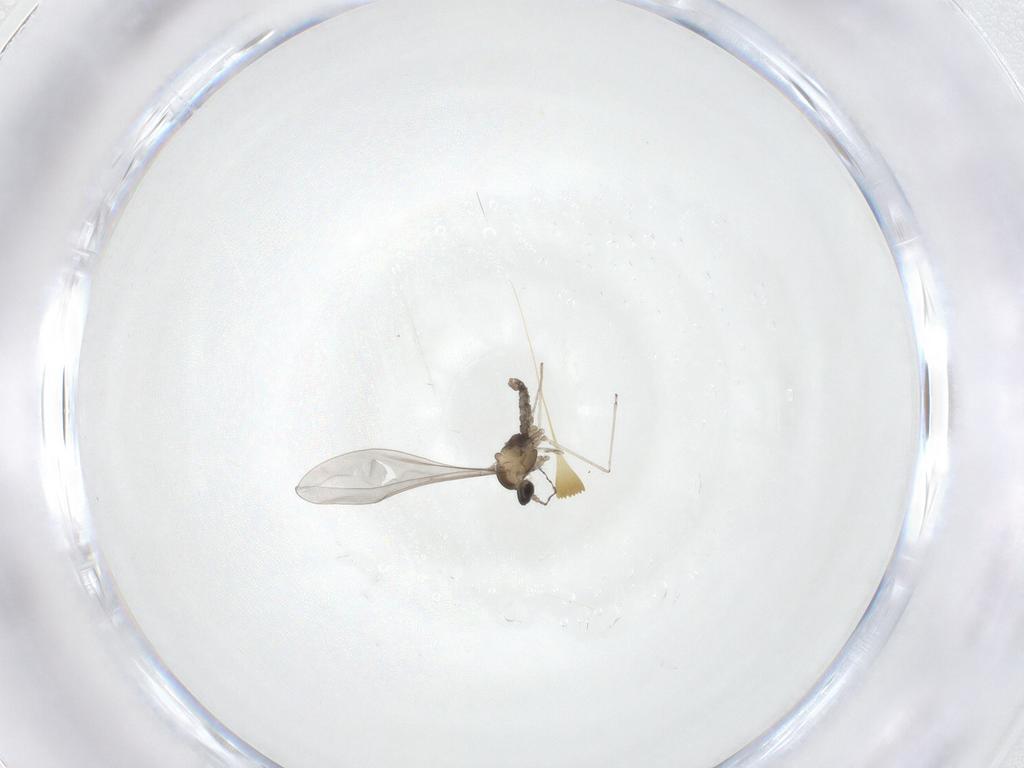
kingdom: Animalia
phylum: Arthropoda
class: Insecta
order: Diptera
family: Cecidomyiidae
